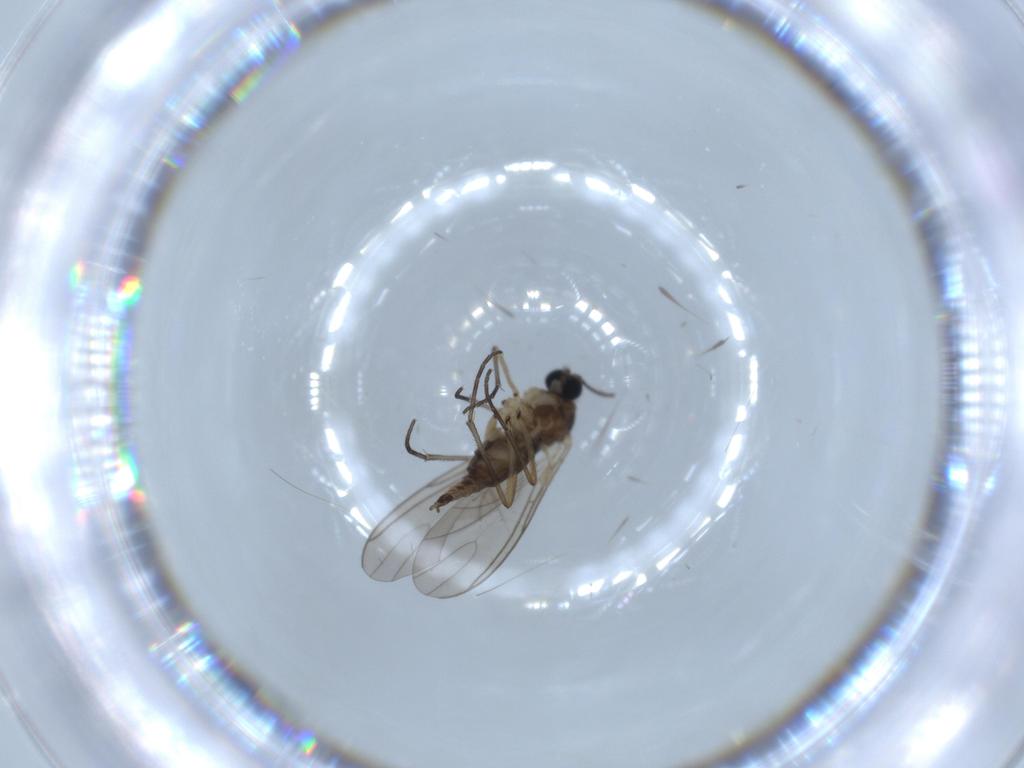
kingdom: Animalia
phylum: Arthropoda
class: Insecta
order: Diptera
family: Sciaridae
